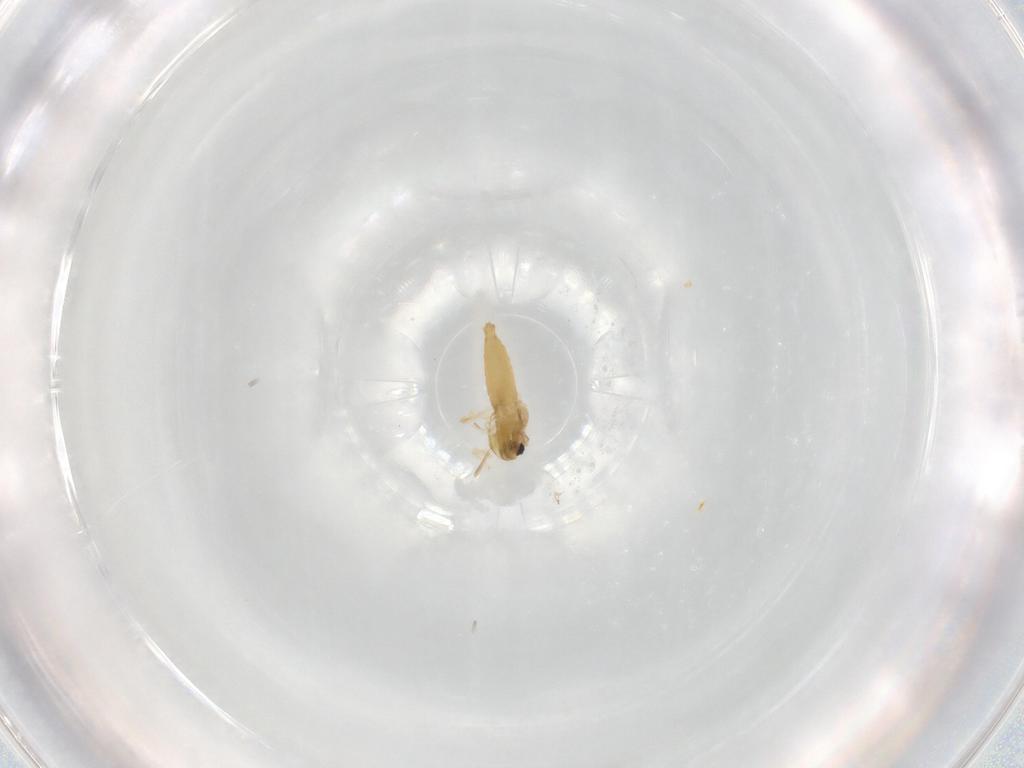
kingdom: Animalia
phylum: Arthropoda
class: Insecta
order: Diptera
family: Glossinidae
